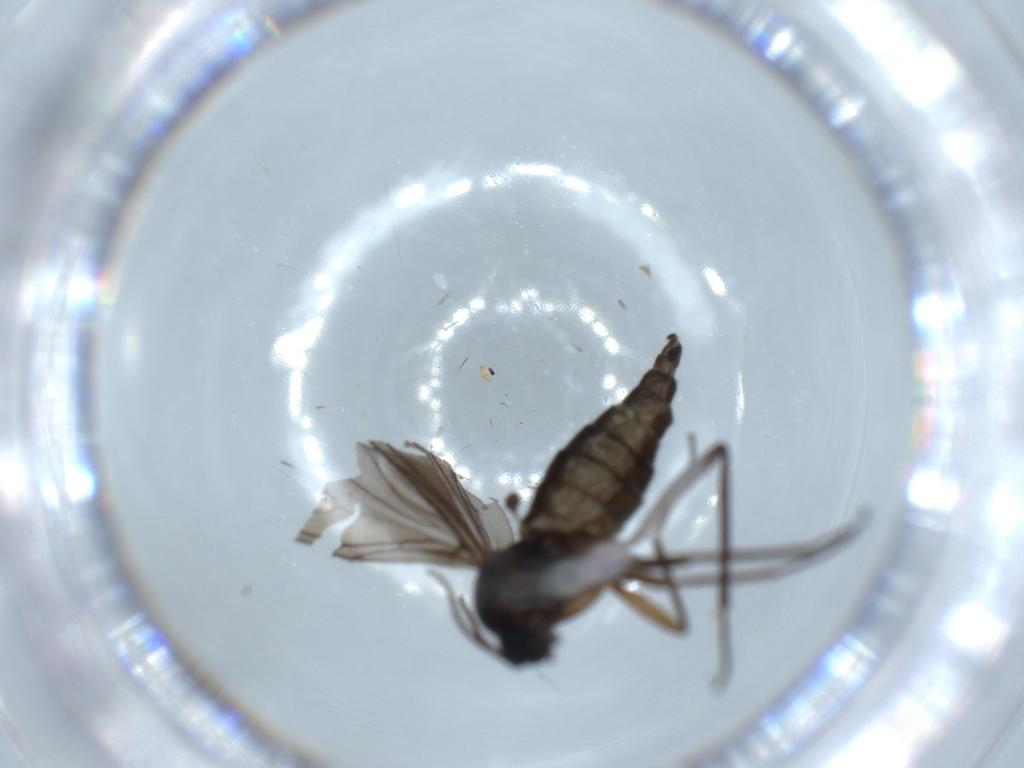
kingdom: Animalia
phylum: Arthropoda
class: Insecta
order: Diptera
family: Sciaridae
